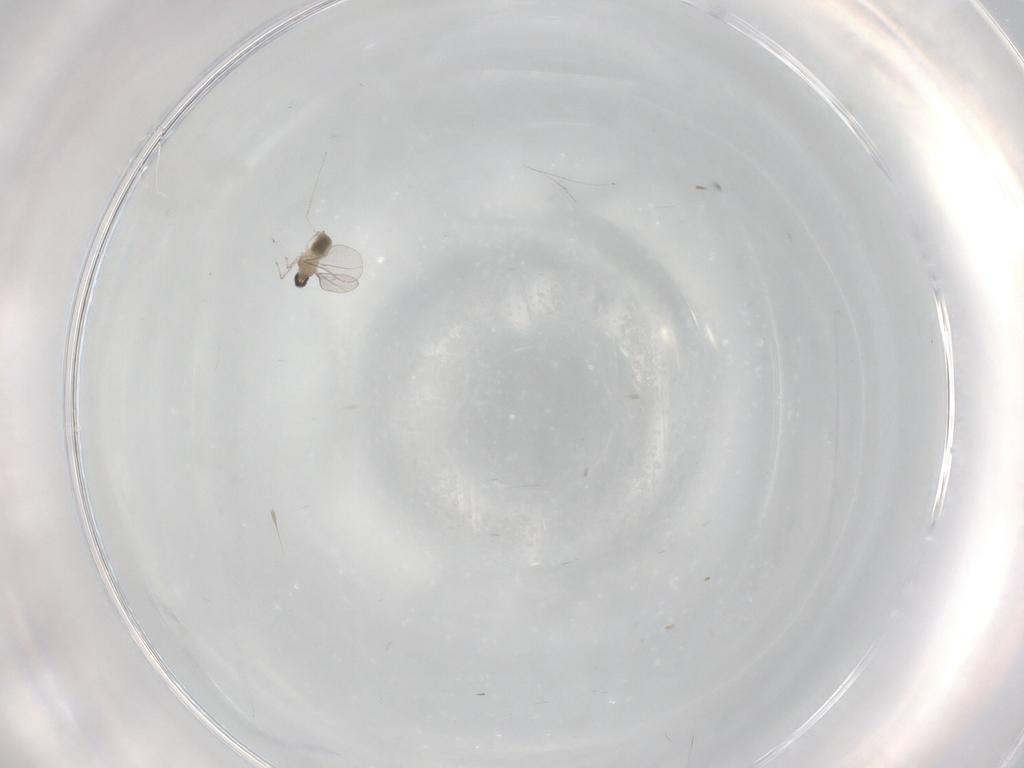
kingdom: Animalia
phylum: Arthropoda
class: Insecta
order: Diptera
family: Cecidomyiidae
